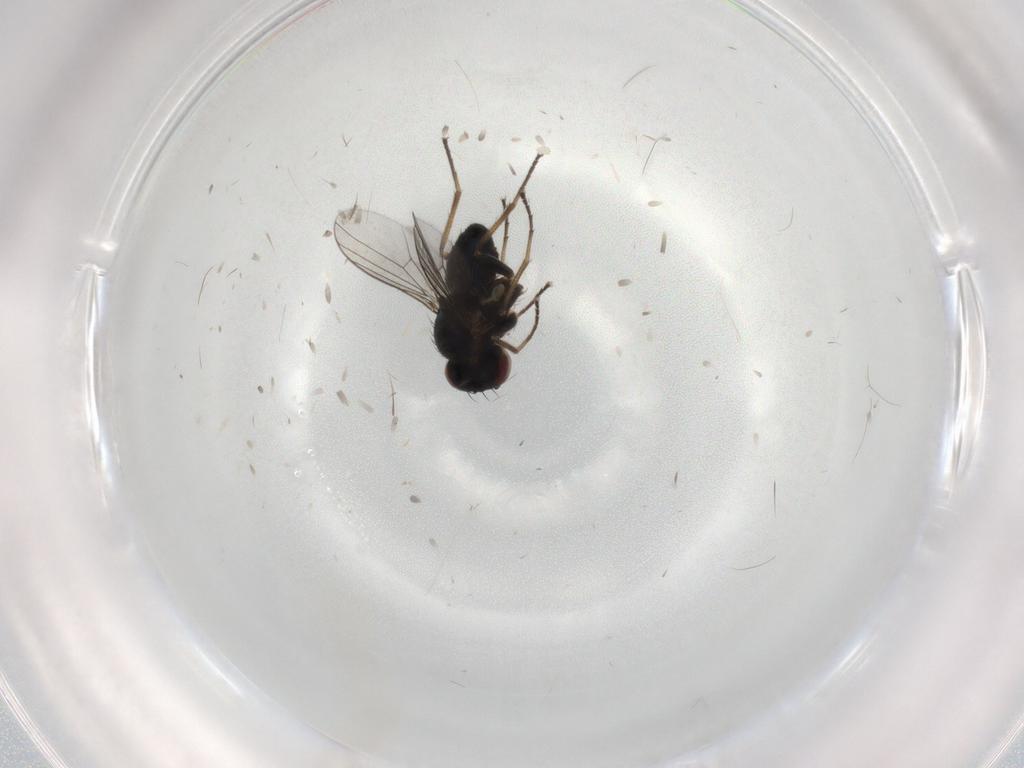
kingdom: Animalia
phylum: Arthropoda
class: Insecta
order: Diptera
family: Dolichopodidae
